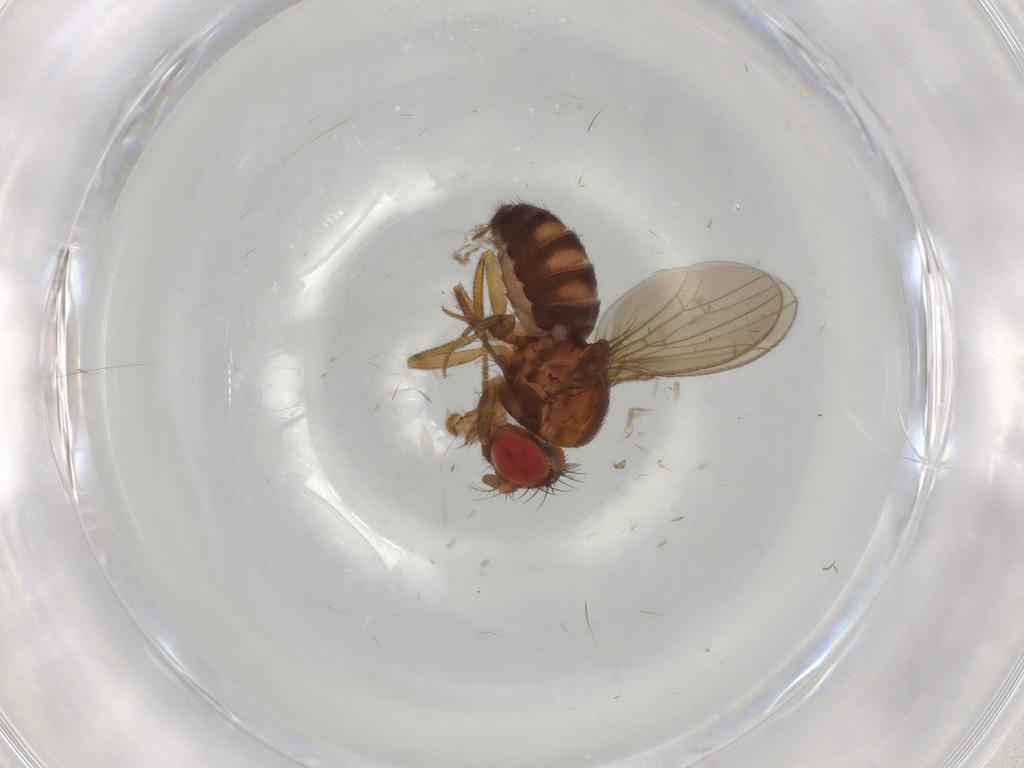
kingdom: Animalia
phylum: Arthropoda
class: Insecta
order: Diptera
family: Drosophilidae
